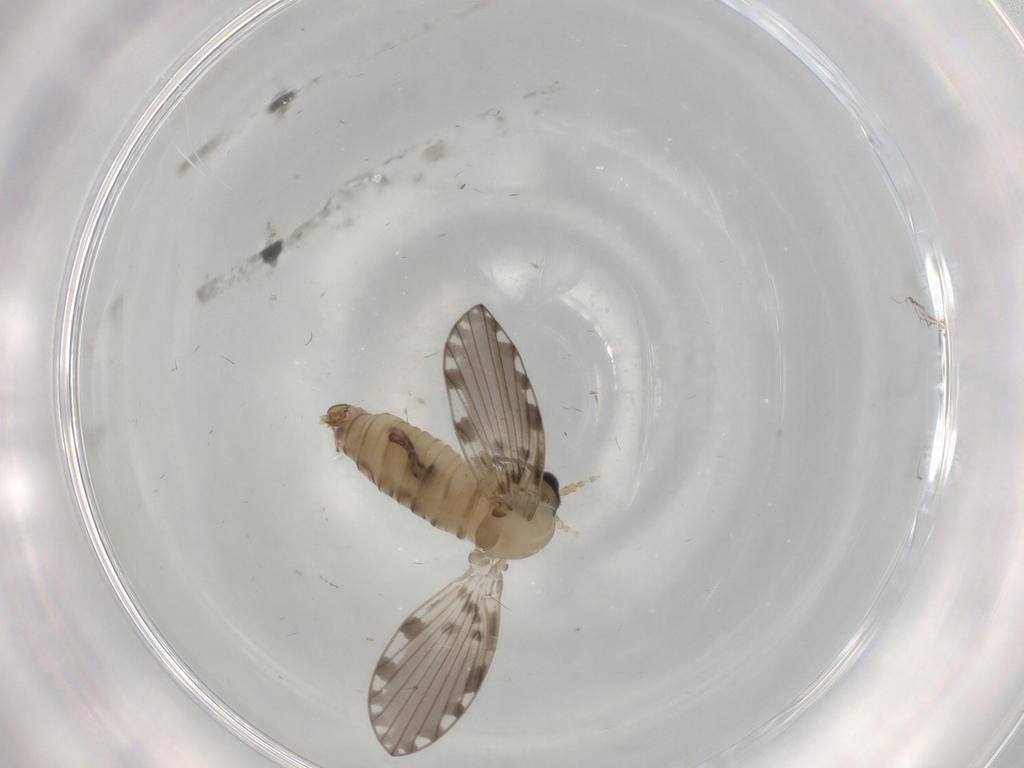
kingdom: Animalia
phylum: Arthropoda
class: Insecta
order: Diptera
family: Psychodidae
